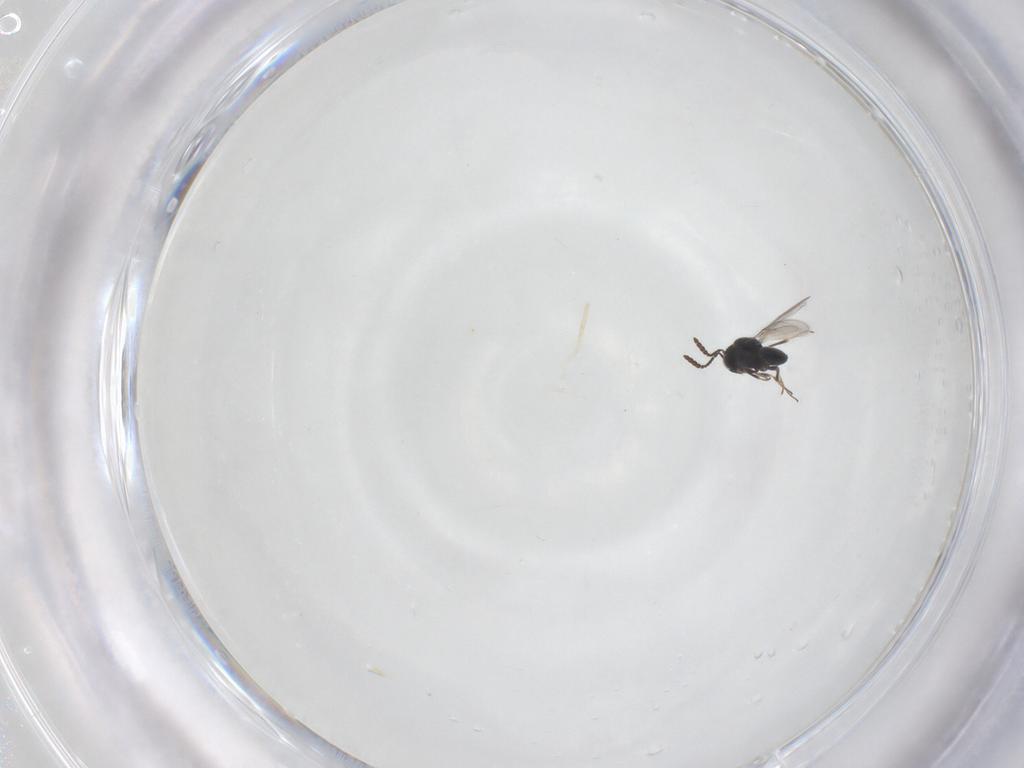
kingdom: Animalia
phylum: Arthropoda
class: Insecta
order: Hymenoptera
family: Scelionidae
